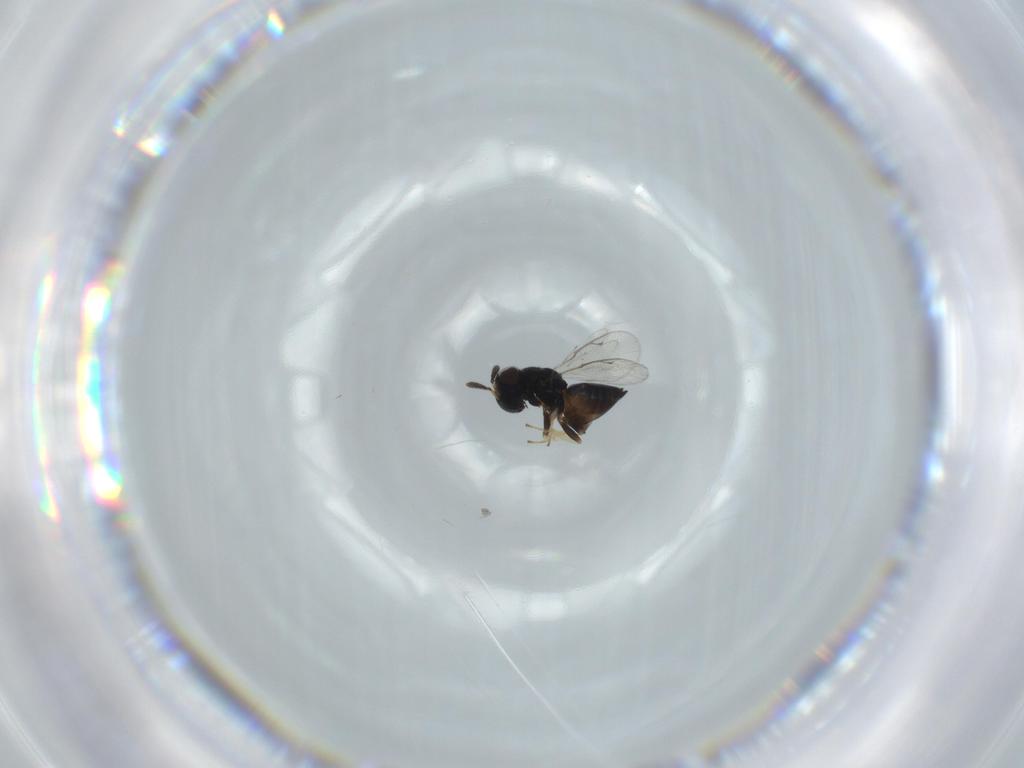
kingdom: Animalia
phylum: Arthropoda
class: Insecta
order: Hymenoptera
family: Pteromalidae
